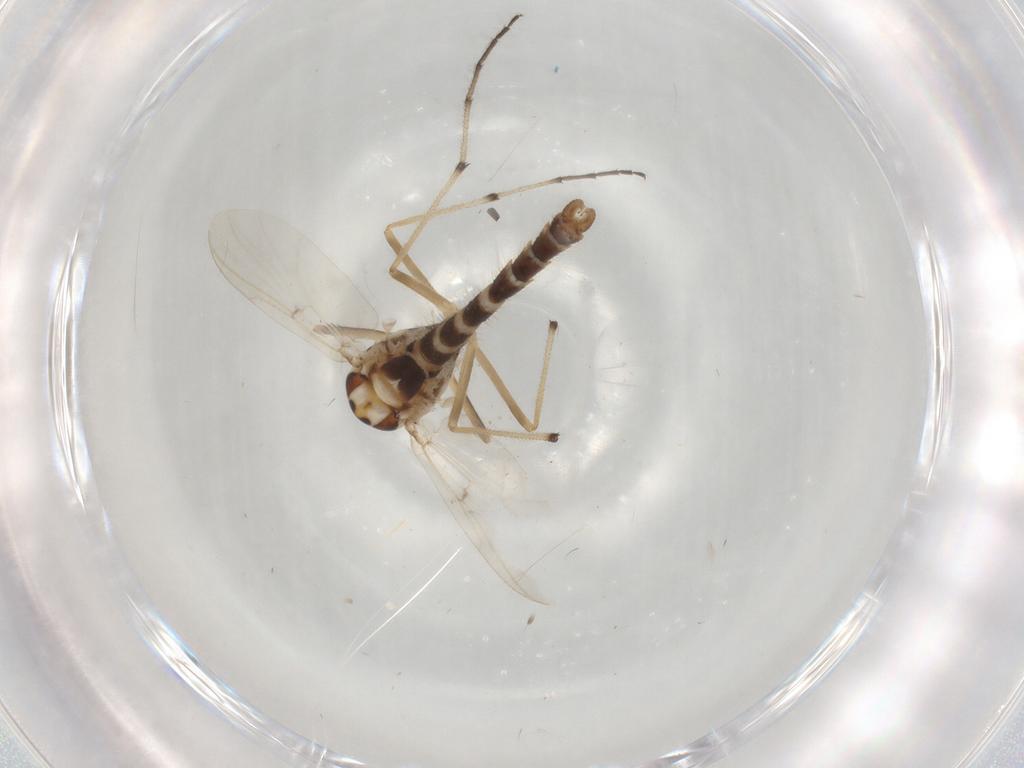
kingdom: Animalia
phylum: Arthropoda
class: Insecta
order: Diptera
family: Chironomidae
